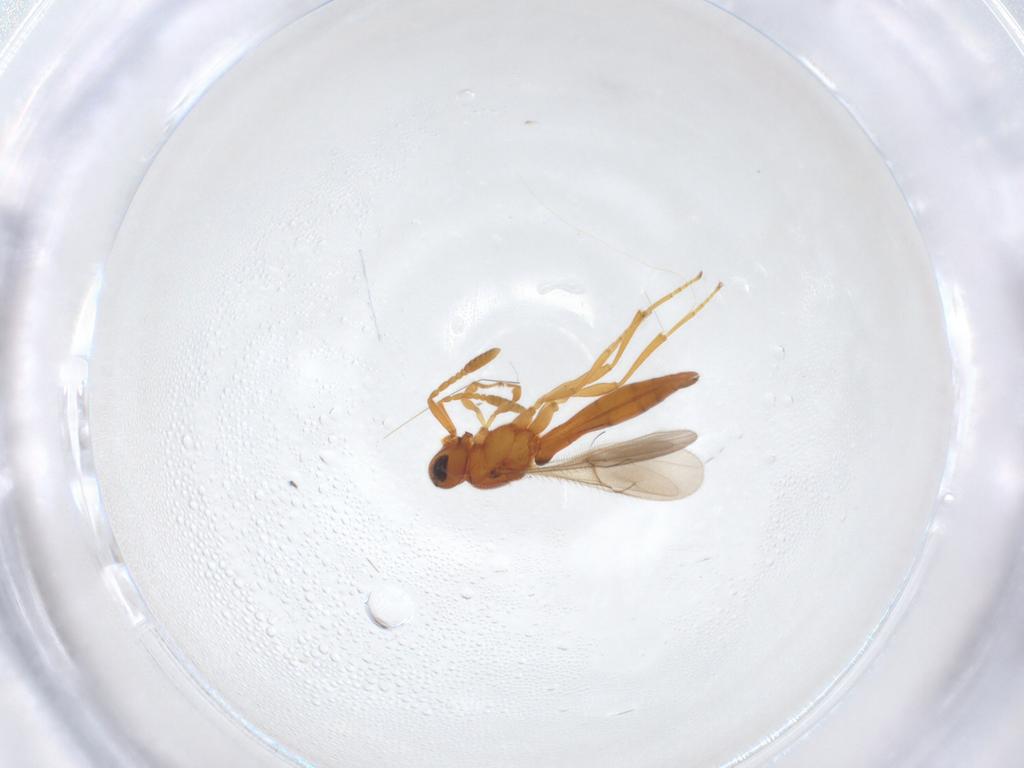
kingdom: Animalia
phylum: Arthropoda
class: Insecta
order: Hymenoptera
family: Scelionidae
